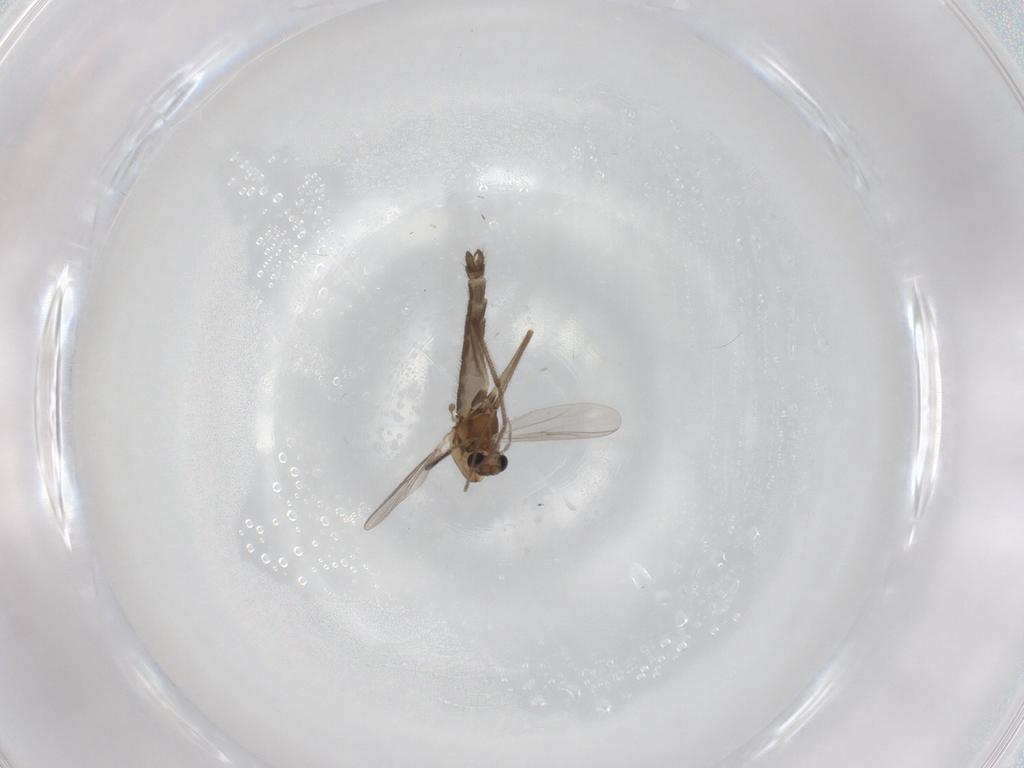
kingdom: Animalia
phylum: Arthropoda
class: Insecta
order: Diptera
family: Chironomidae
